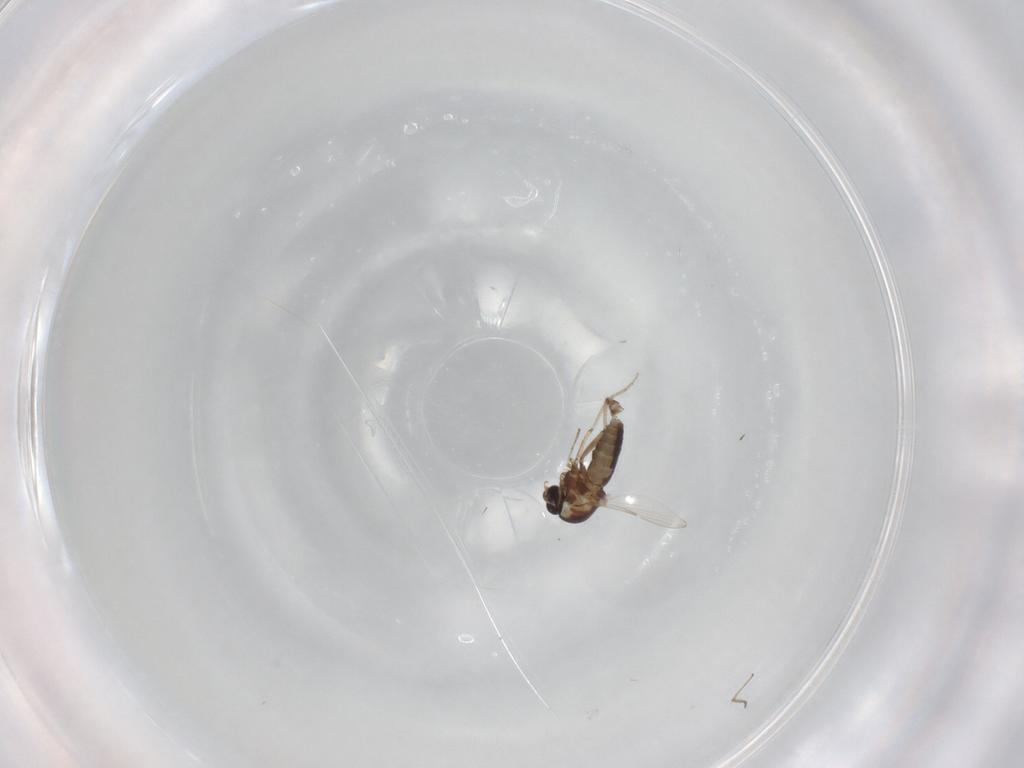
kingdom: Animalia
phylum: Arthropoda
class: Insecta
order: Diptera
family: Ceratopogonidae
